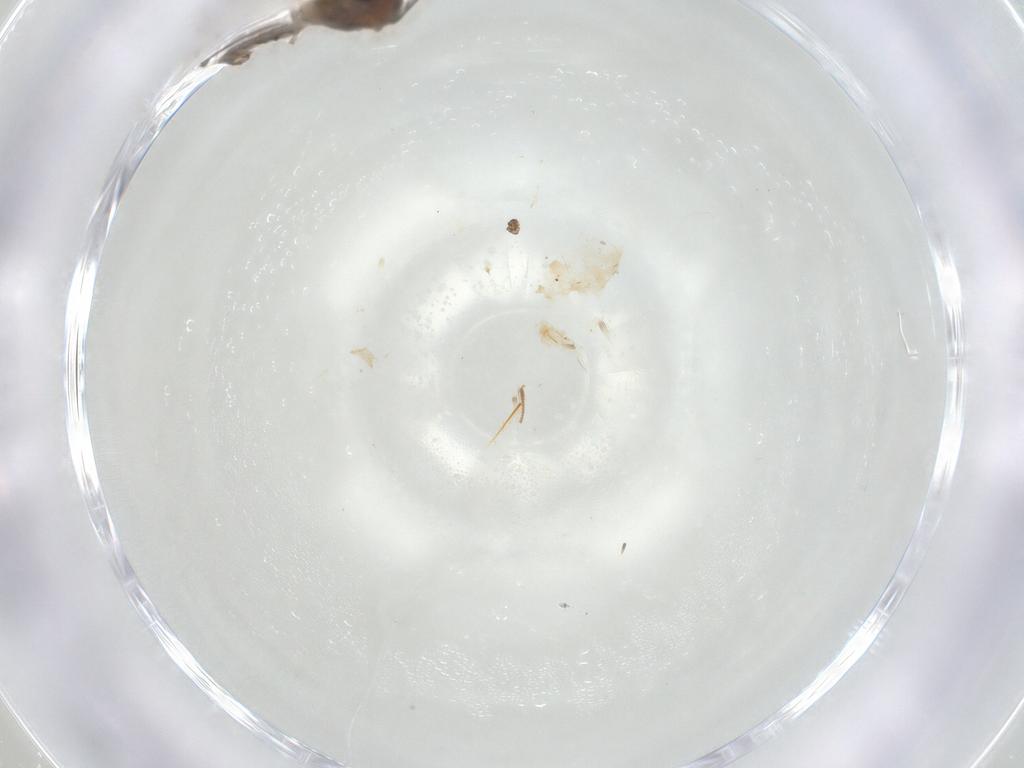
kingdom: Animalia
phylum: Arthropoda
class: Insecta
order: Diptera
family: Cecidomyiidae
